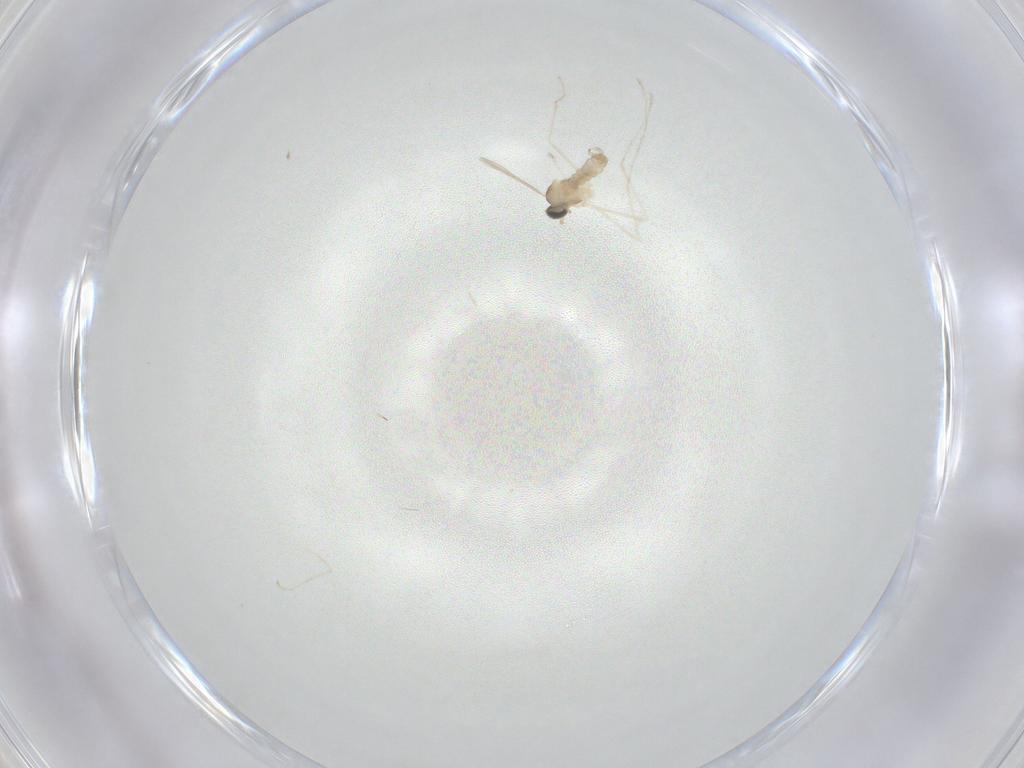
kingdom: Animalia
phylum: Arthropoda
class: Insecta
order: Diptera
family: Cecidomyiidae
